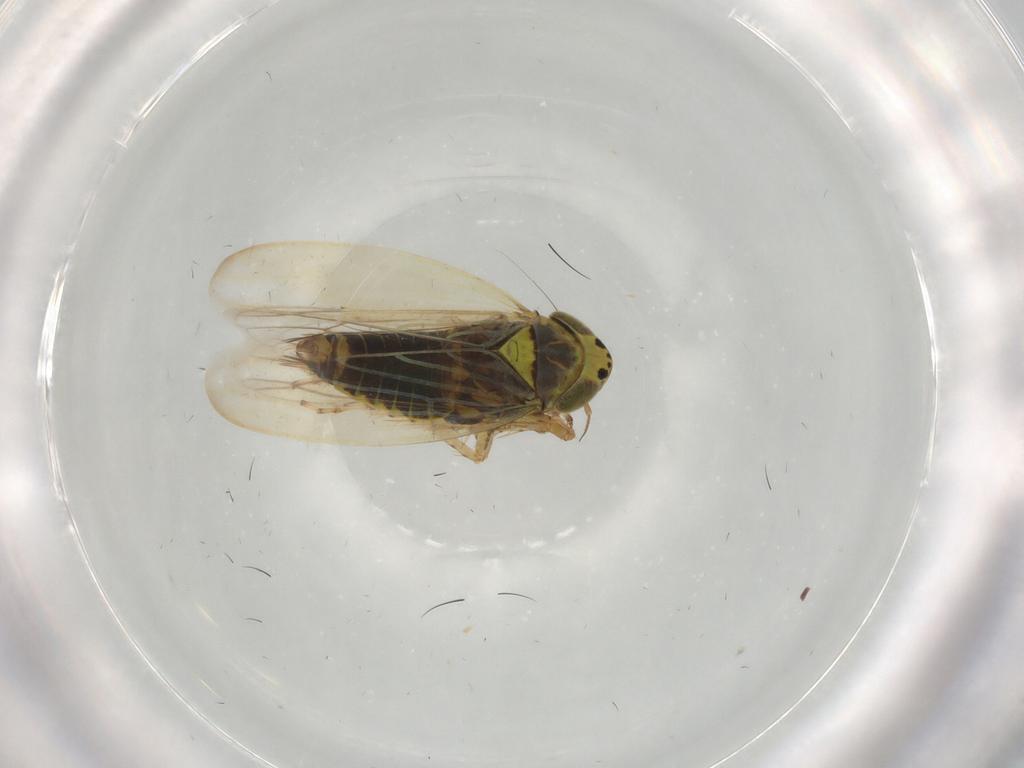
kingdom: Animalia
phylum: Arthropoda
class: Insecta
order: Hemiptera
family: Cicadellidae
